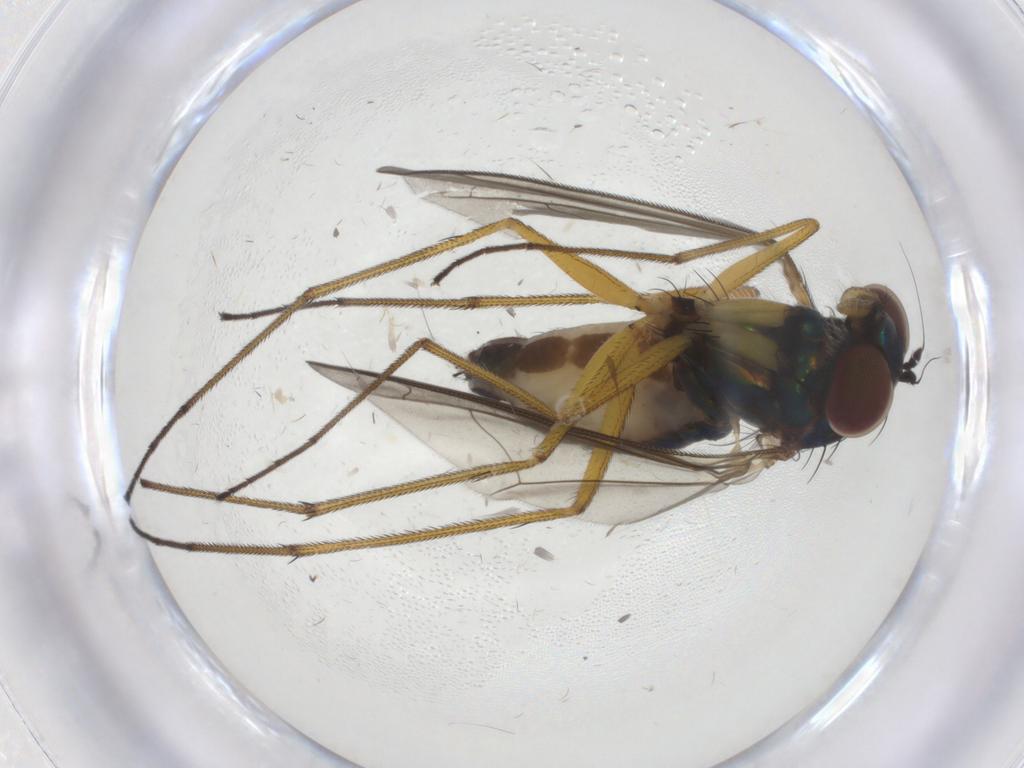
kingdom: Animalia
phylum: Arthropoda
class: Insecta
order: Diptera
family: Dolichopodidae
